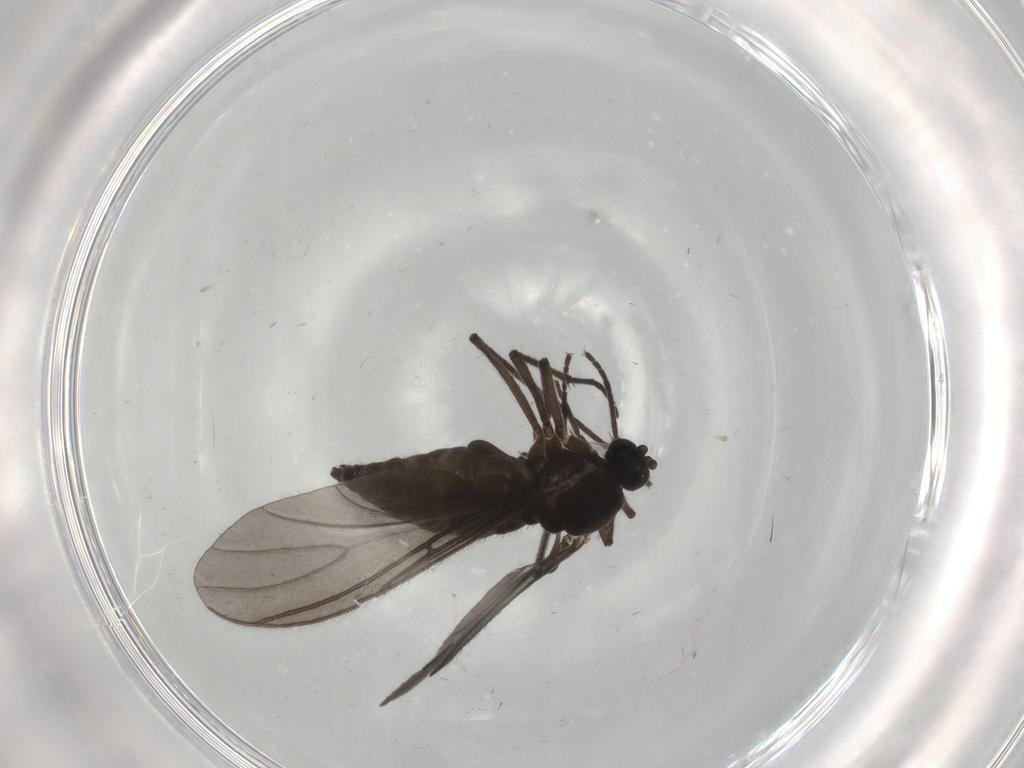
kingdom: Animalia
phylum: Arthropoda
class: Insecta
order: Diptera
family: Sciaridae
